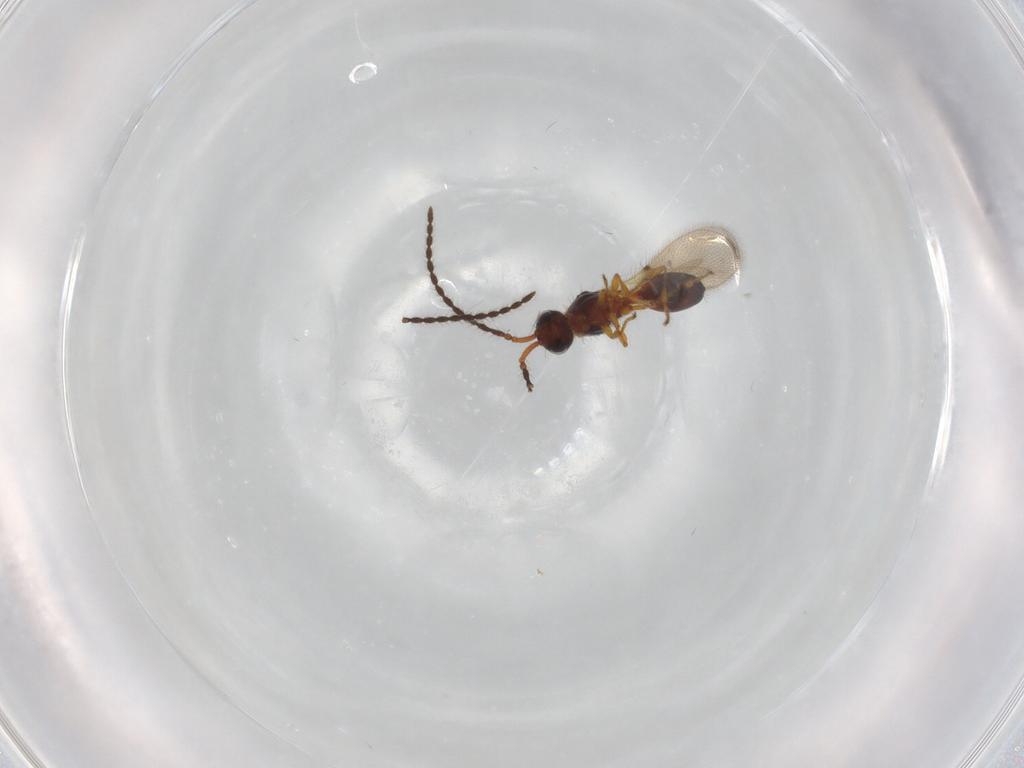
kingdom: Animalia
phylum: Arthropoda
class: Insecta
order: Hymenoptera
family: Diapriidae
